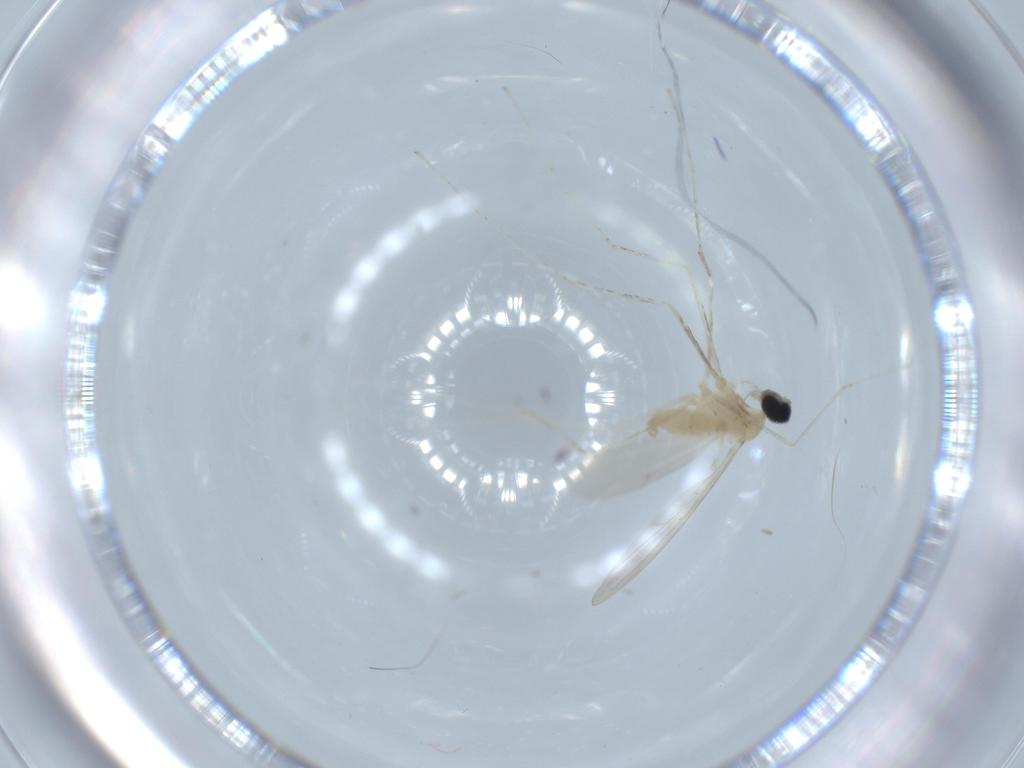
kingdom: Animalia
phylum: Arthropoda
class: Insecta
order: Diptera
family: Cecidomyiidae
